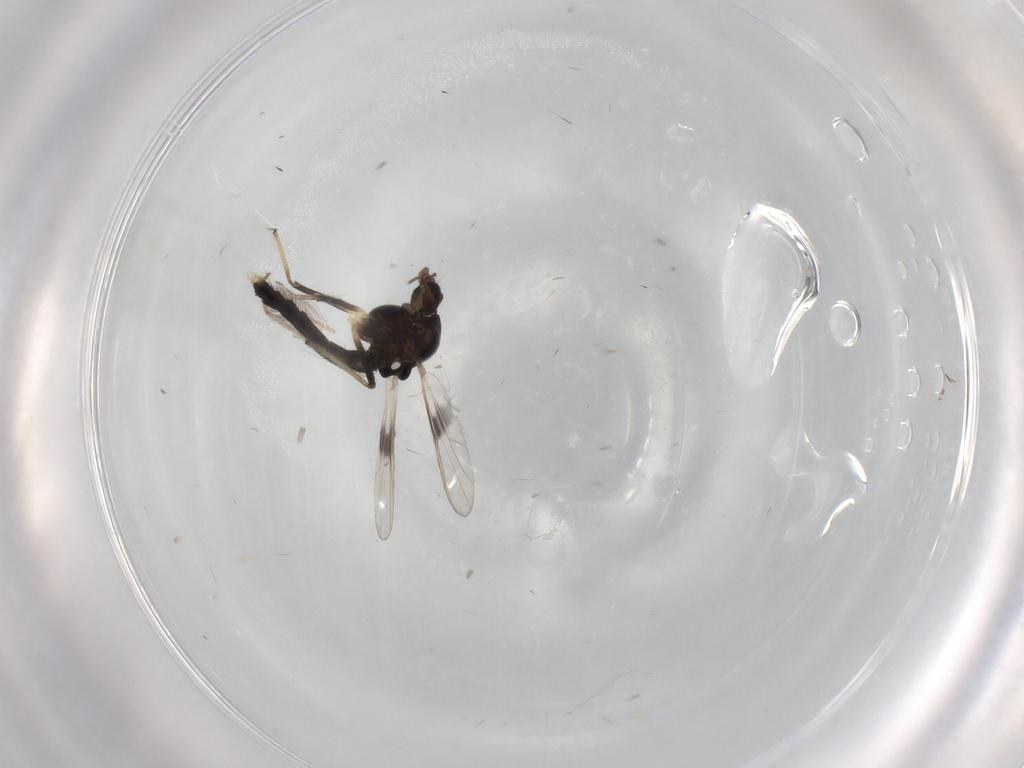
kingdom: Animalia
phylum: Arthropoda
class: Insecta
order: Diptera
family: Chironomidae
